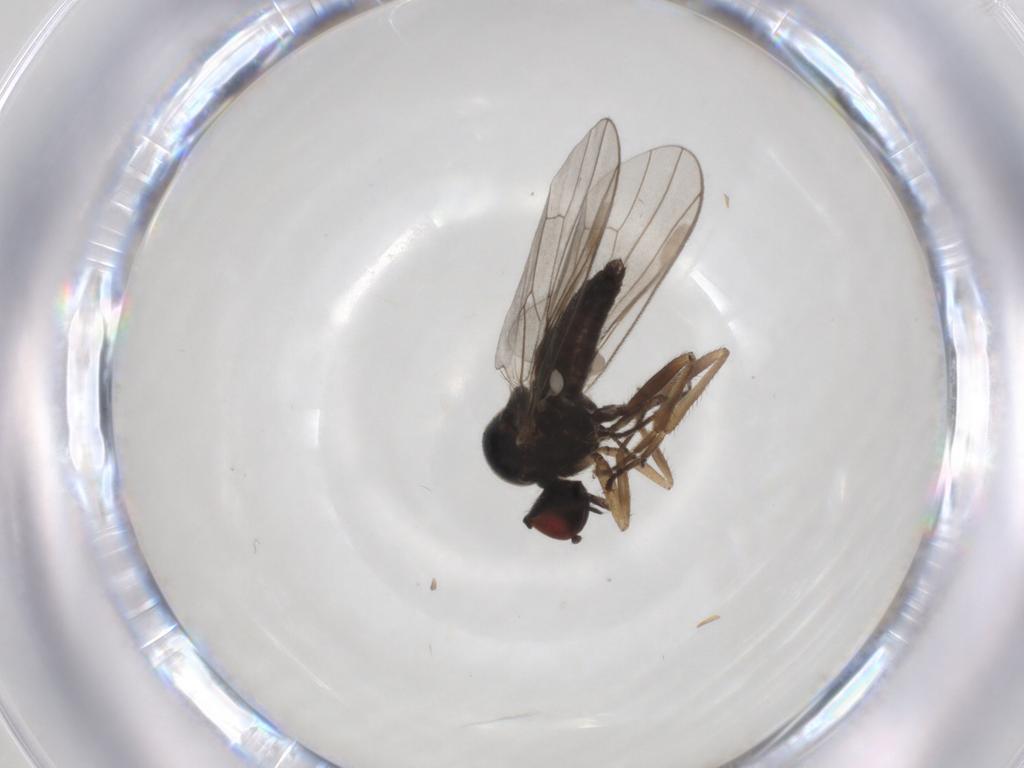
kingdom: Animalia
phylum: Arthropoda
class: Insecta
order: Diptera
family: Hybotidae
